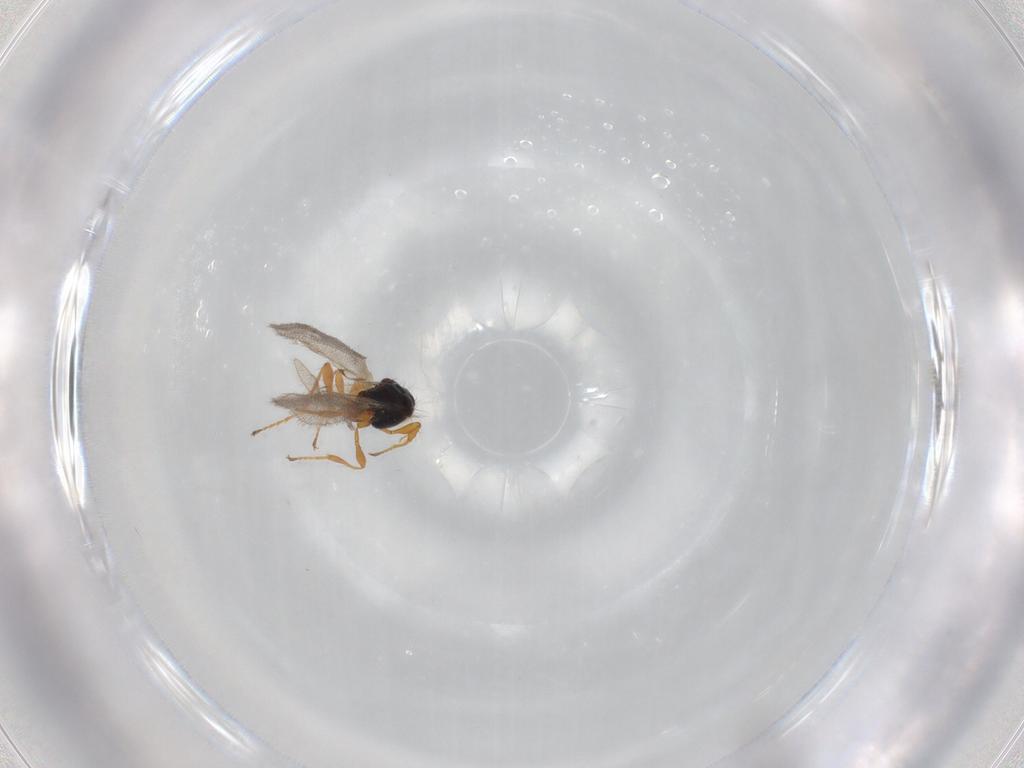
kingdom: Animalia
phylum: Arthropoda
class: Insecta
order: Hymenoptera
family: Diapriidae
